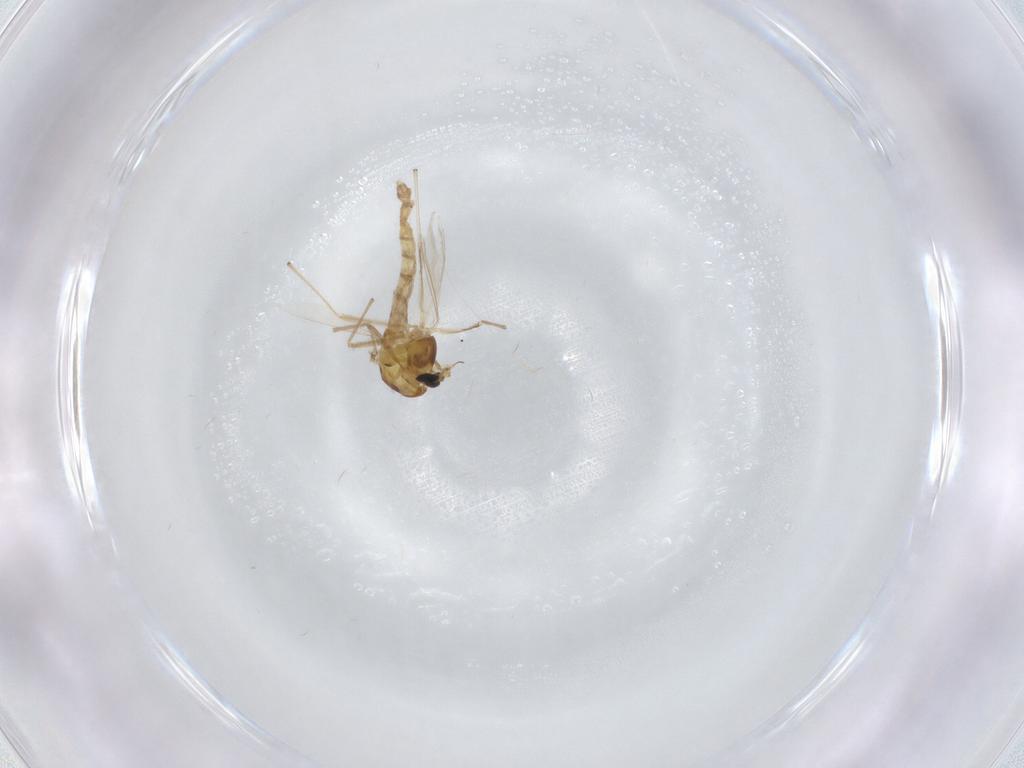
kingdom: Animalia
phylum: Arthropoda
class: Insecta
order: Diptera
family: Chironomidae
